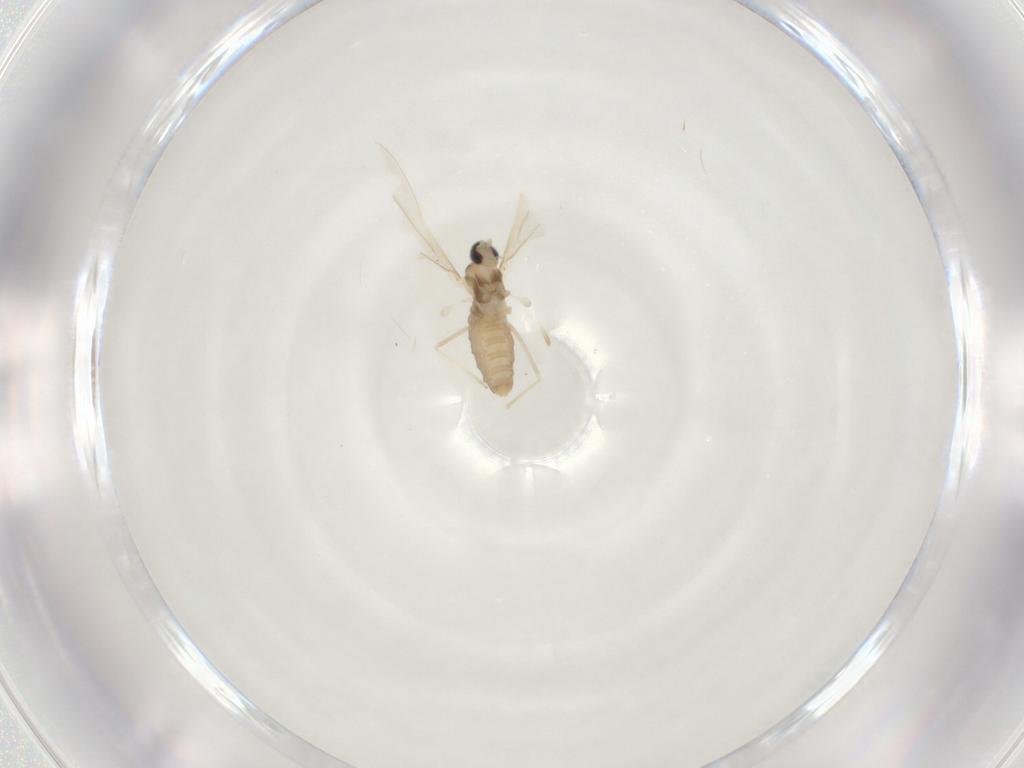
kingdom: Animalia
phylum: Arthropoda
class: Insecta
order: Diptera
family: Cecidomyiidae
